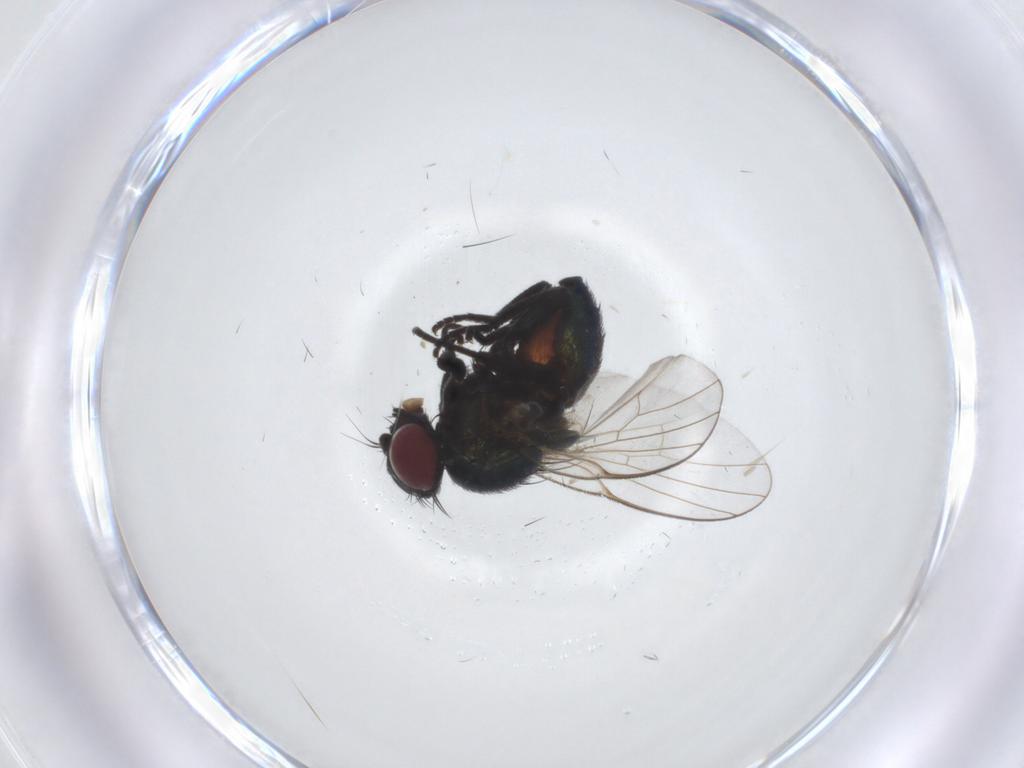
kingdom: Animalia
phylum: Arthropoda
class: Insecta
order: Diptera
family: Agromyzidae
